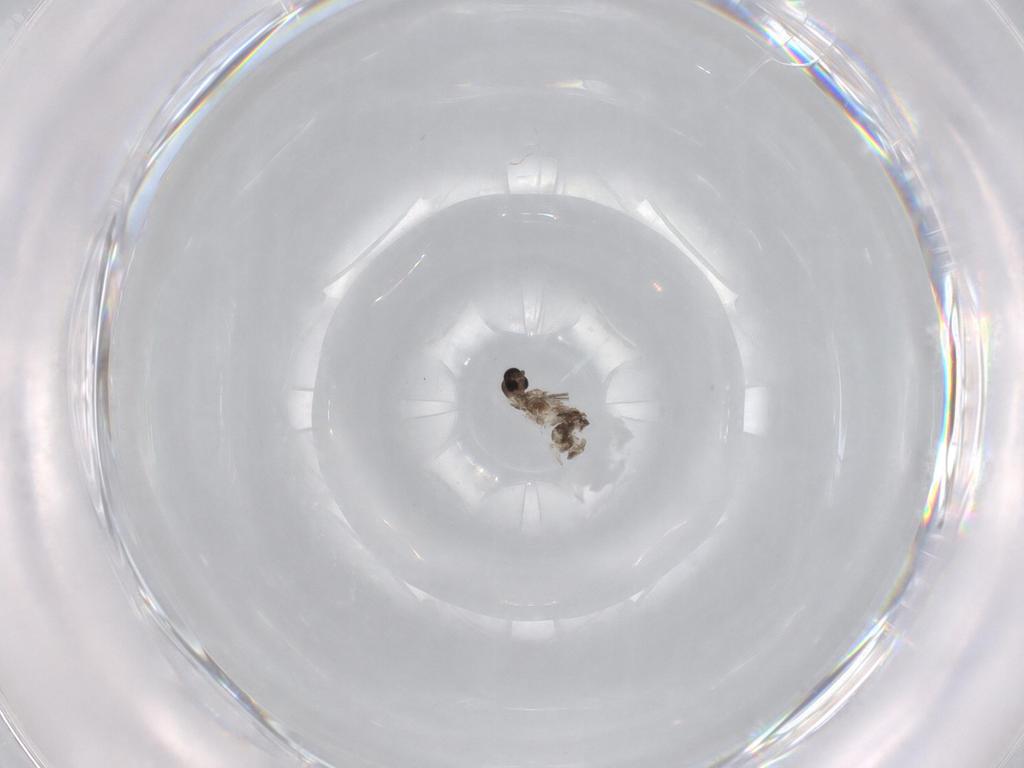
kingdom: Animalia
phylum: Arthropoda
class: Insecta
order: Diptera
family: Cecidomyiidae
